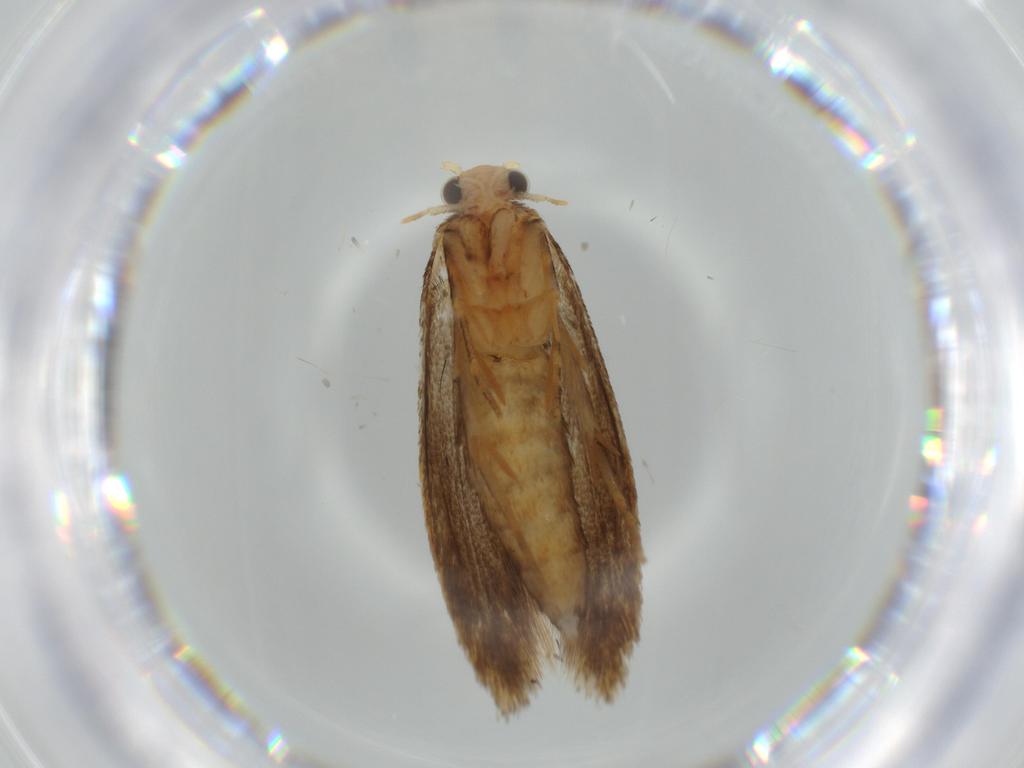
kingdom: Animalia
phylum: Arthropoda
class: Insecta
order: Lepidoptera
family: Tineidae
